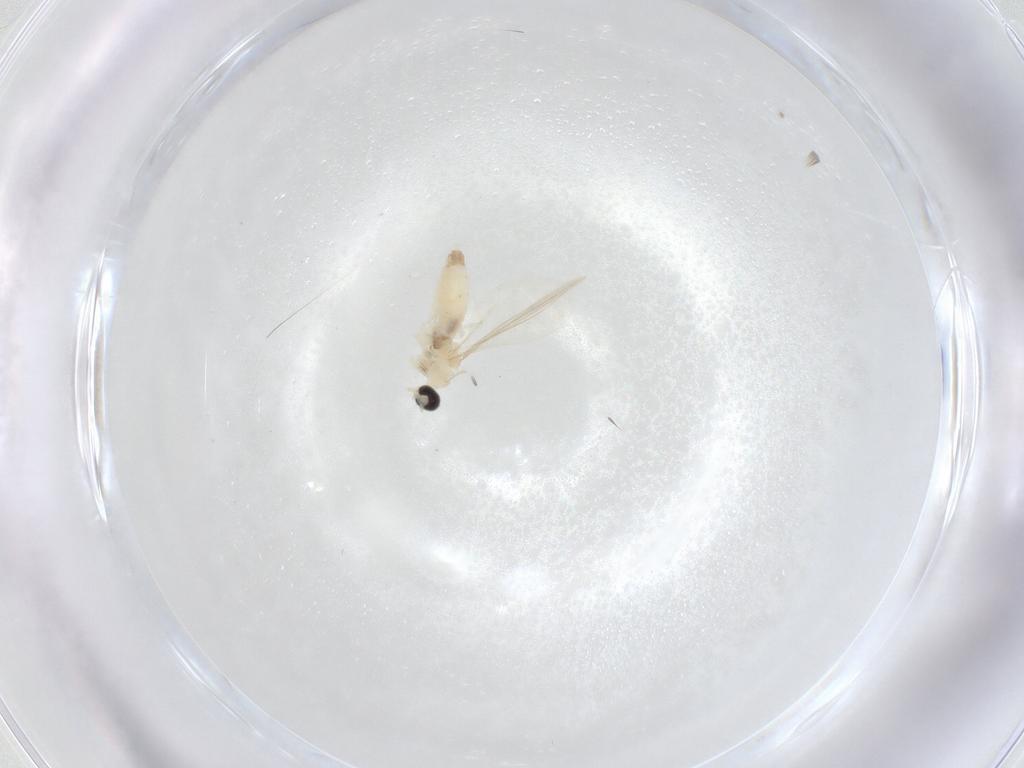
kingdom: Animalia
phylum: Arthropoda
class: Insecta
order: Diptera
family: Cecidomyiidae
